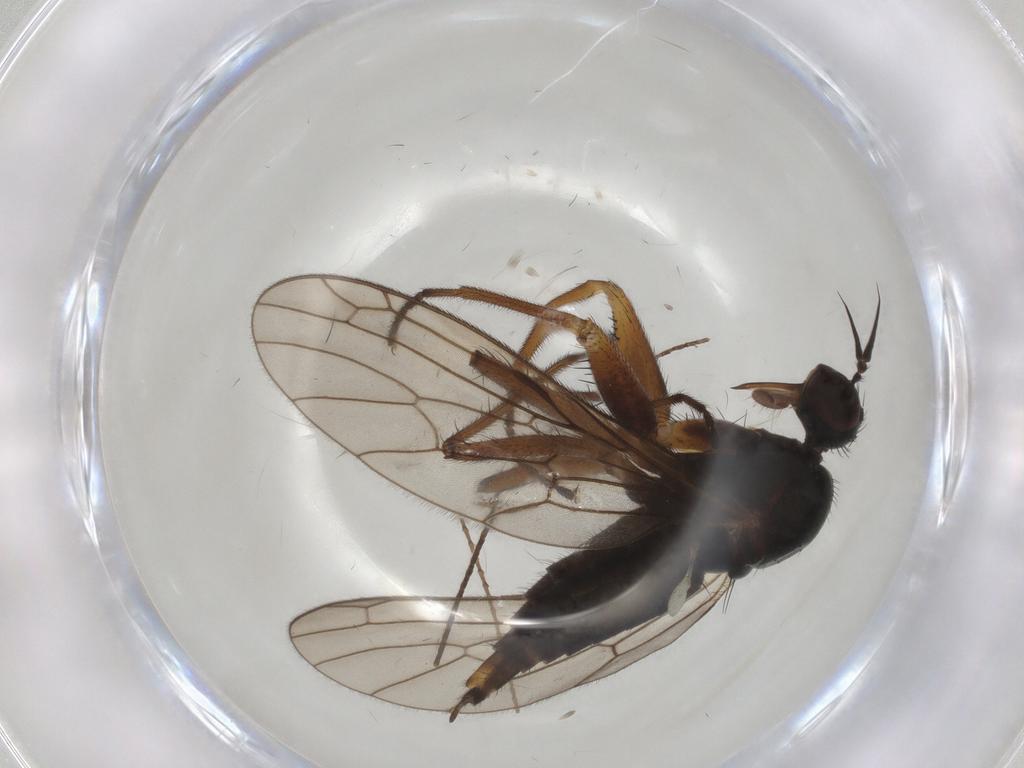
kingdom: Animalia
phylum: Arthropoda
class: Insecta
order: Diptera
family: Empididae
